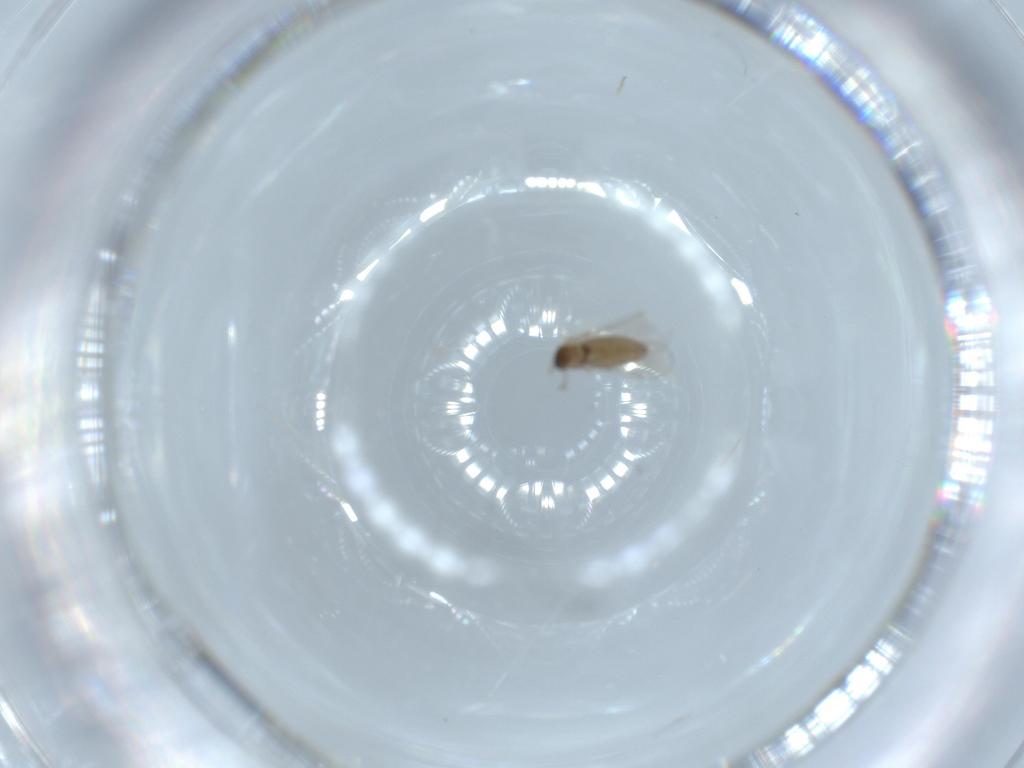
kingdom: Animalia
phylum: Arthropoda
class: Insecta
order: Diptera
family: Cecidomyiidae
